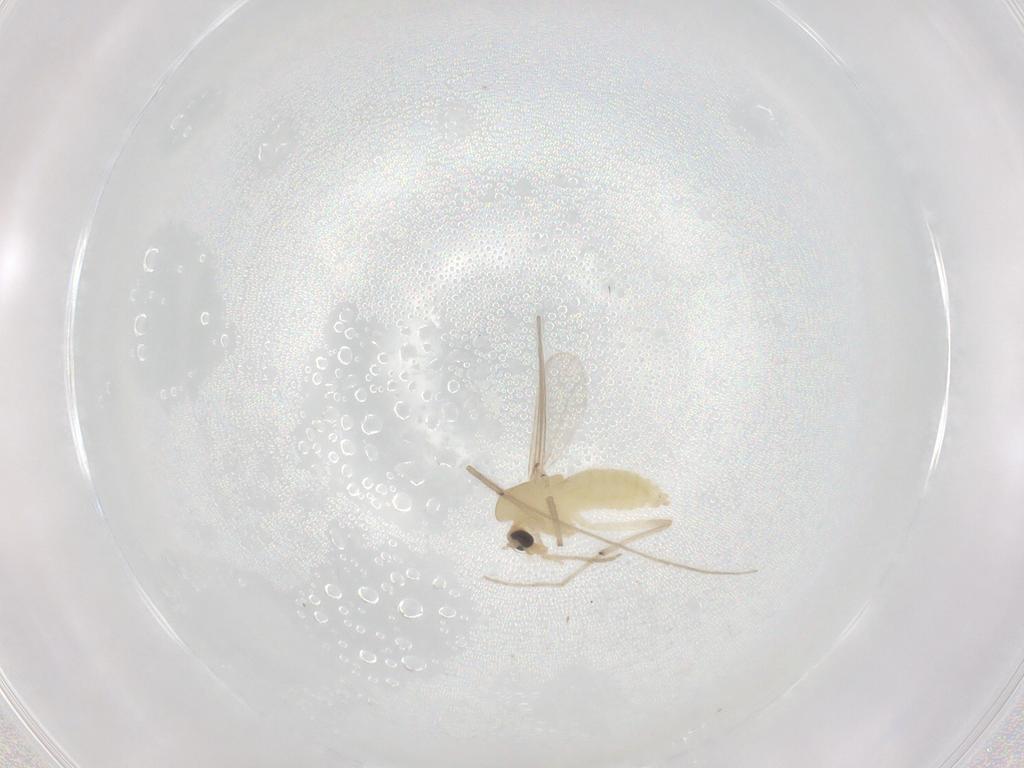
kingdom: Animalia
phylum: Arthropoda
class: Insecta
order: Diptera
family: Chironomidae
